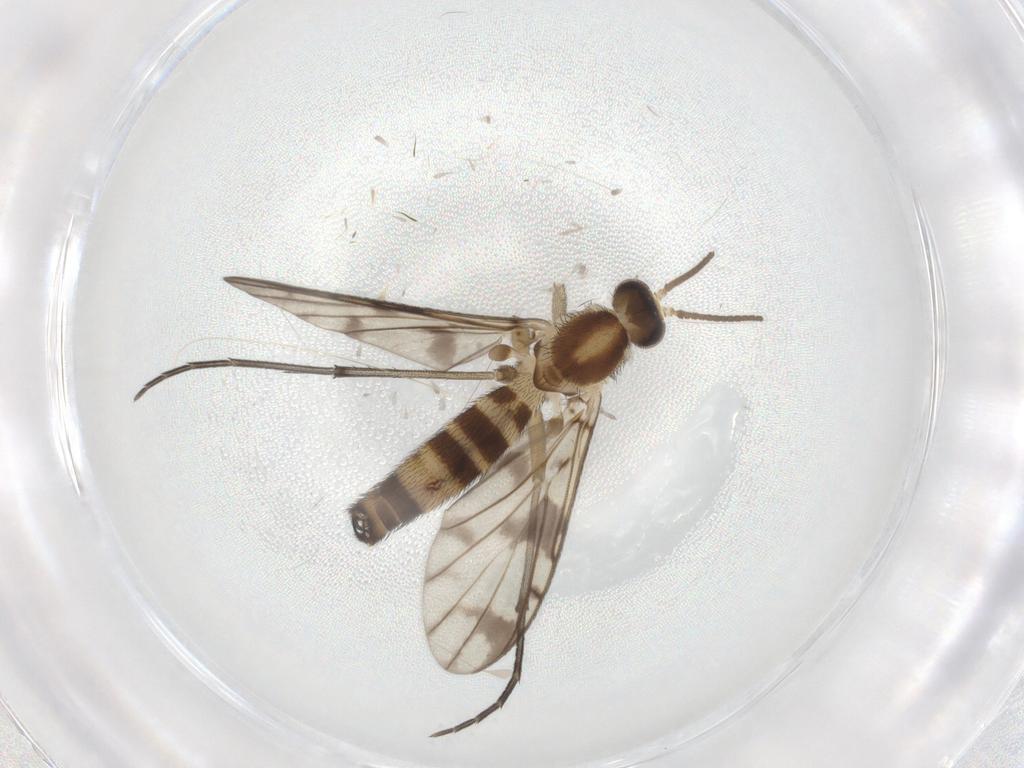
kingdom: Animalia
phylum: Arthropoda
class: Insecta
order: Diptera
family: Ceratopogonidae
